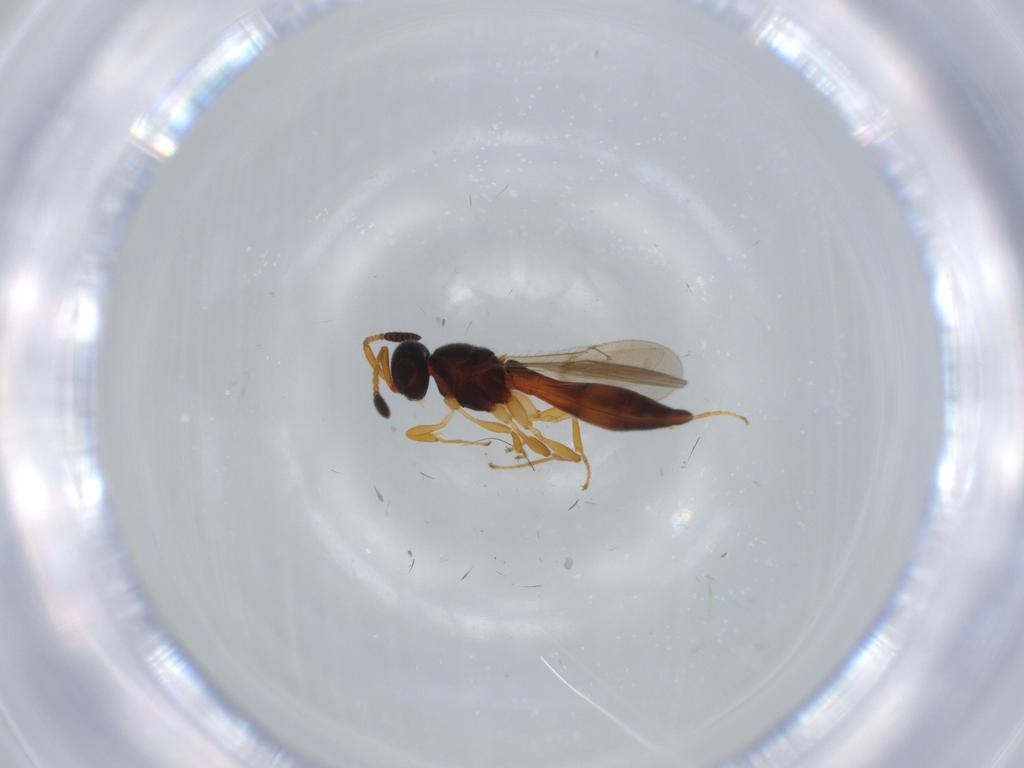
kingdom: Animalia
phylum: Arthropoda
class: Insecta
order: Hymenoptera
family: Scelionidae
